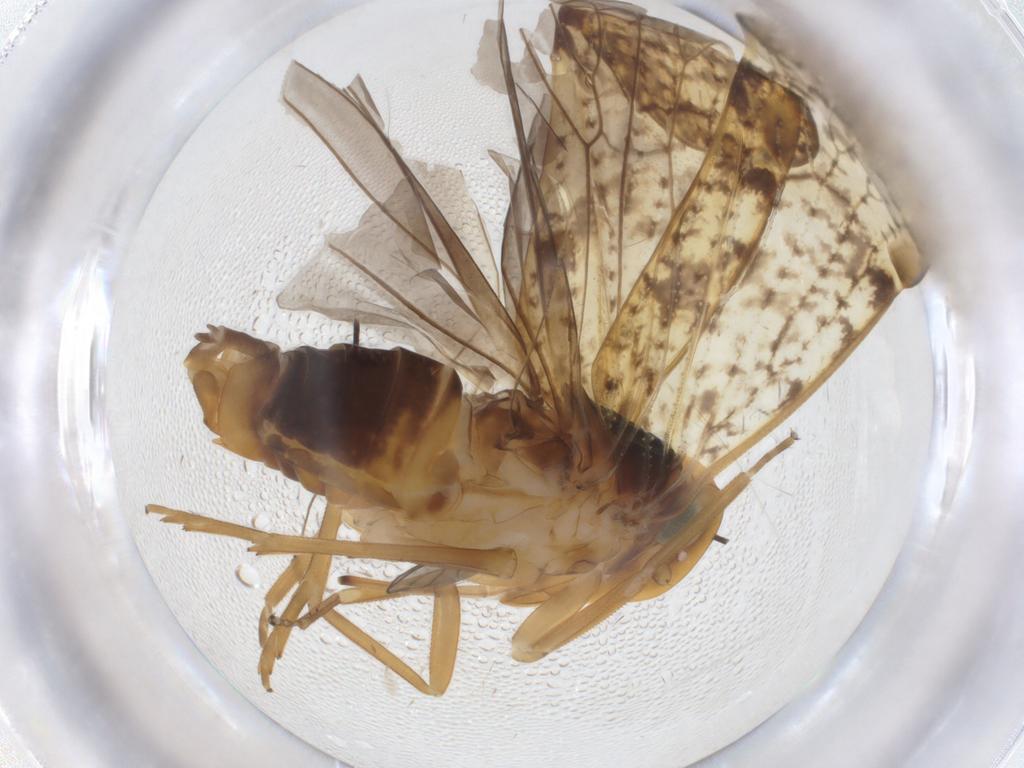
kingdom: Animalia
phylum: Arthropoda
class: Insecta
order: Hemiptera
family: Cixiidae
